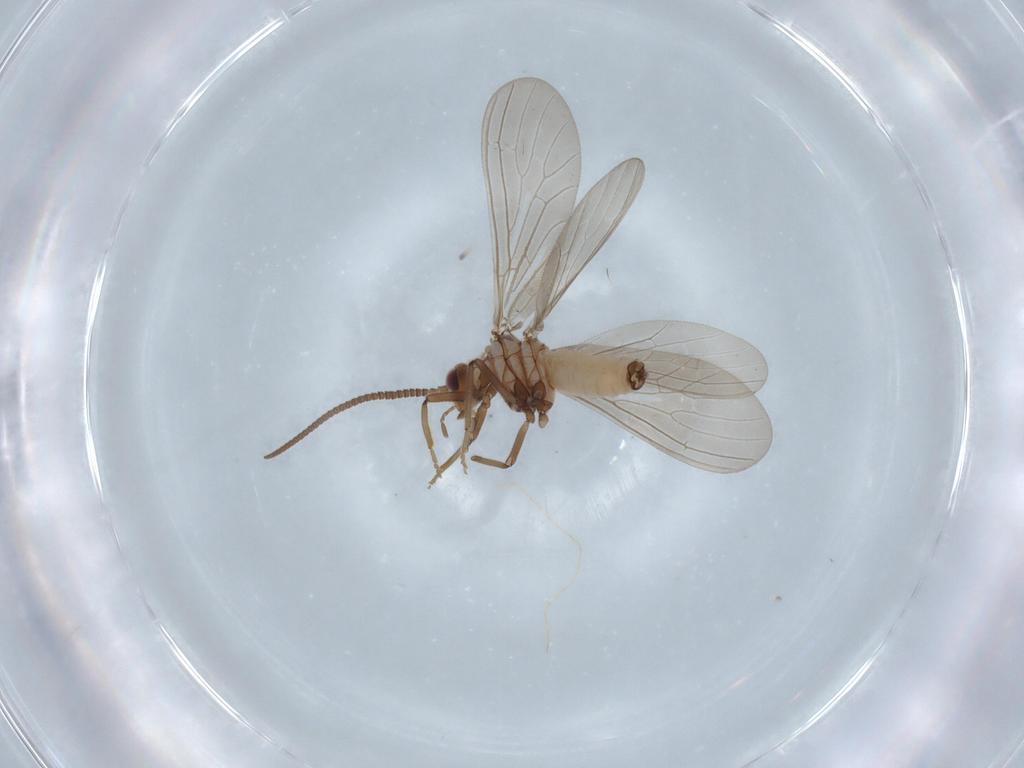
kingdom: Animalia
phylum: Arthropoda
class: Insecta
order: Neuroptera
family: Coniopterygidae
